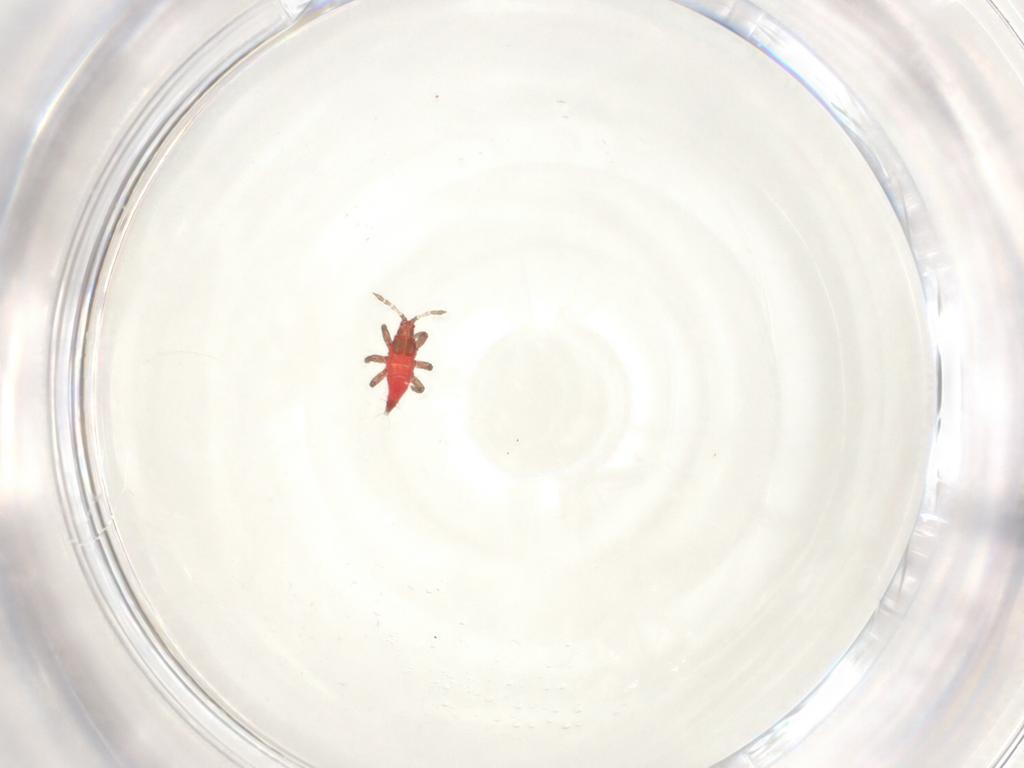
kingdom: Animalia
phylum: Arthropoda
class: Insecta
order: Thysanoptera
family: Phlaeothripidae
